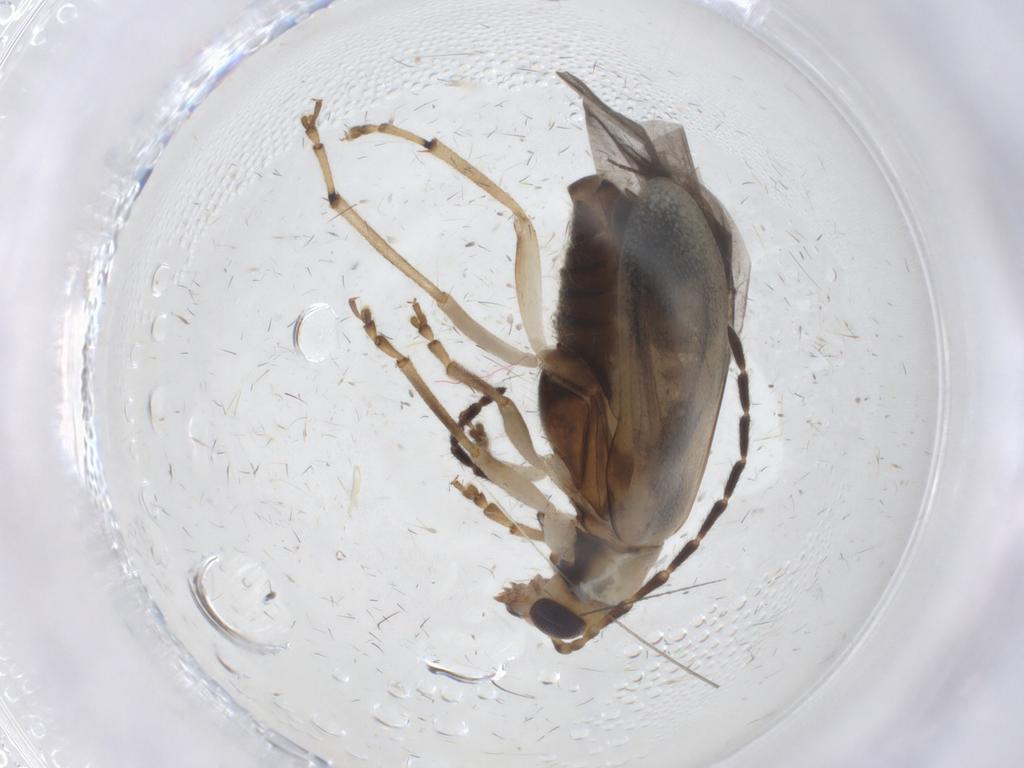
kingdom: Animalia
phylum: Arthropoda
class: Insecta
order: Coleoptera
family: Chrysomelidae
